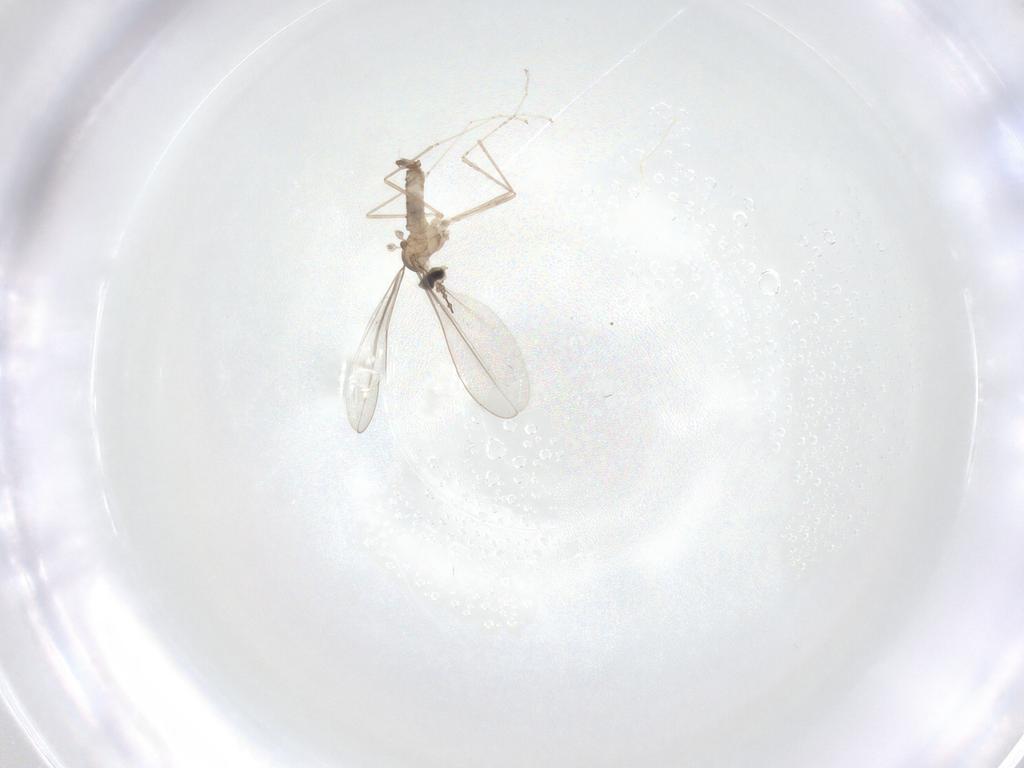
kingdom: Animalia
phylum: Arthropoda
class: Insecta
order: Diptera
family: Cecidomyiidae
